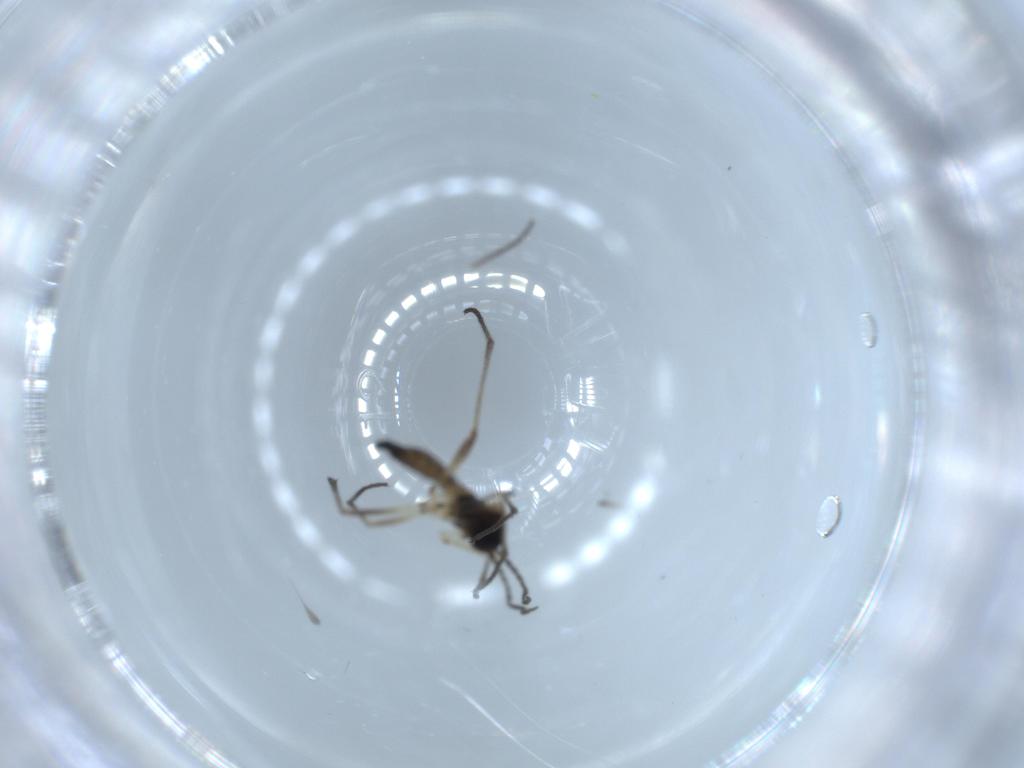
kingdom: Animalia
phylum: Arthropoda
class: Insecta
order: Diptera
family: Sciaridae
